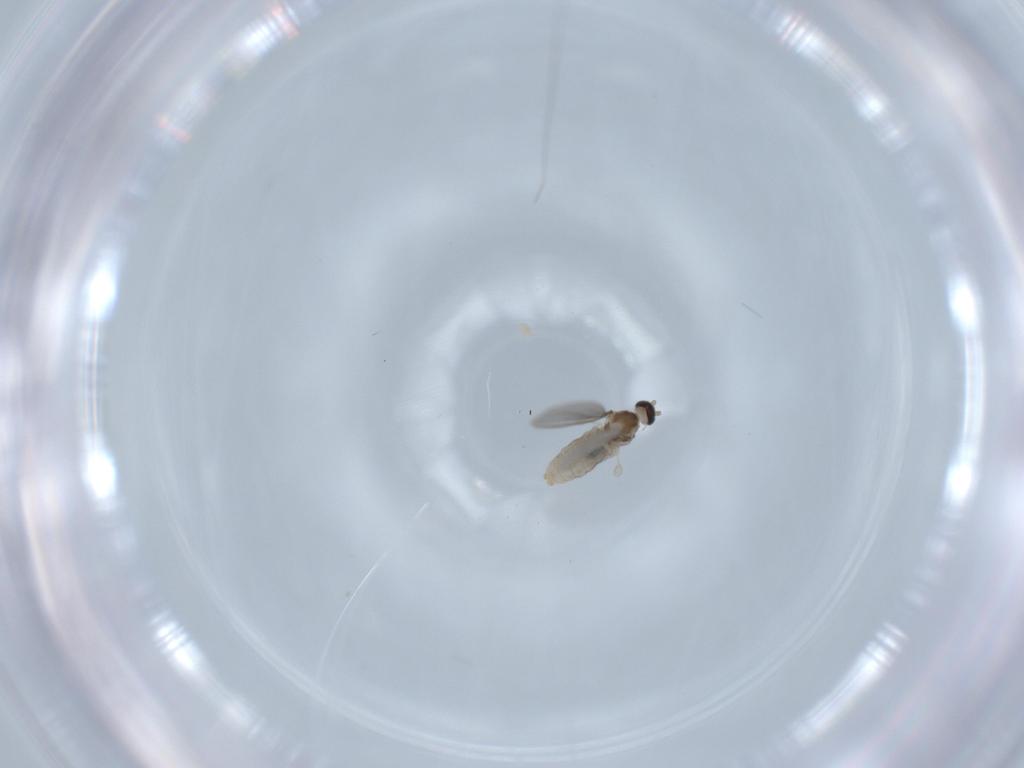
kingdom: Animalia
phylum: Arthropoda
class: Insecta
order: Diptera
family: Cecidomyiidae
